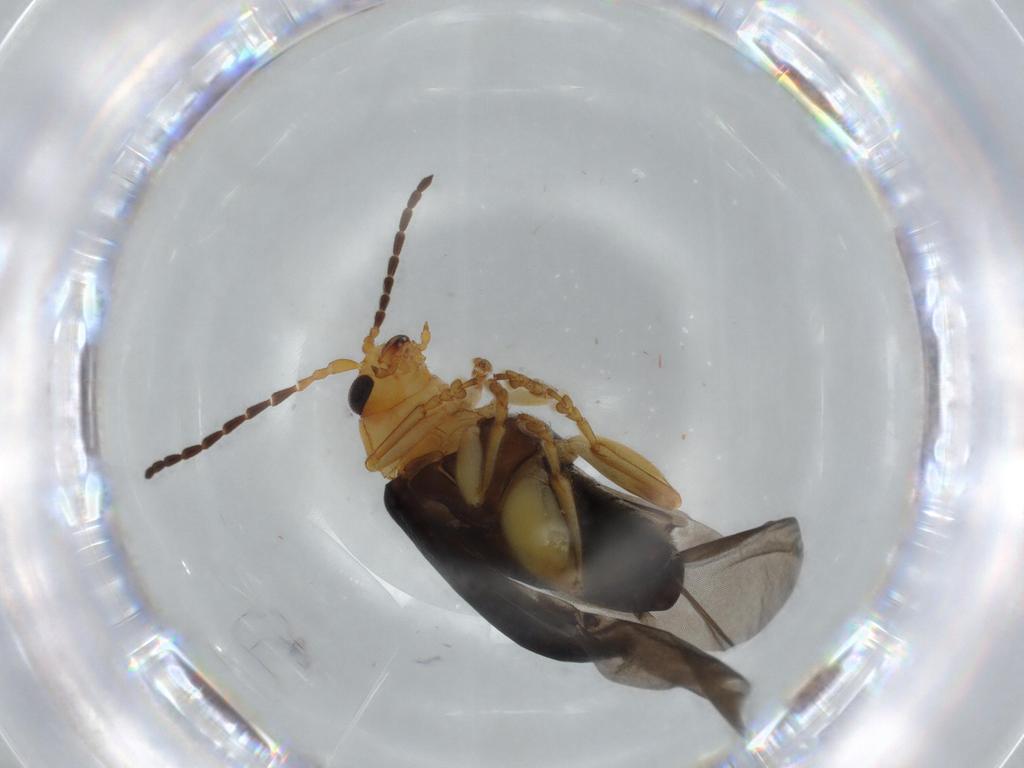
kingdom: Animalia
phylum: Arthropoda
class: Insecta
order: Coleoptera
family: Chrysomelidae
